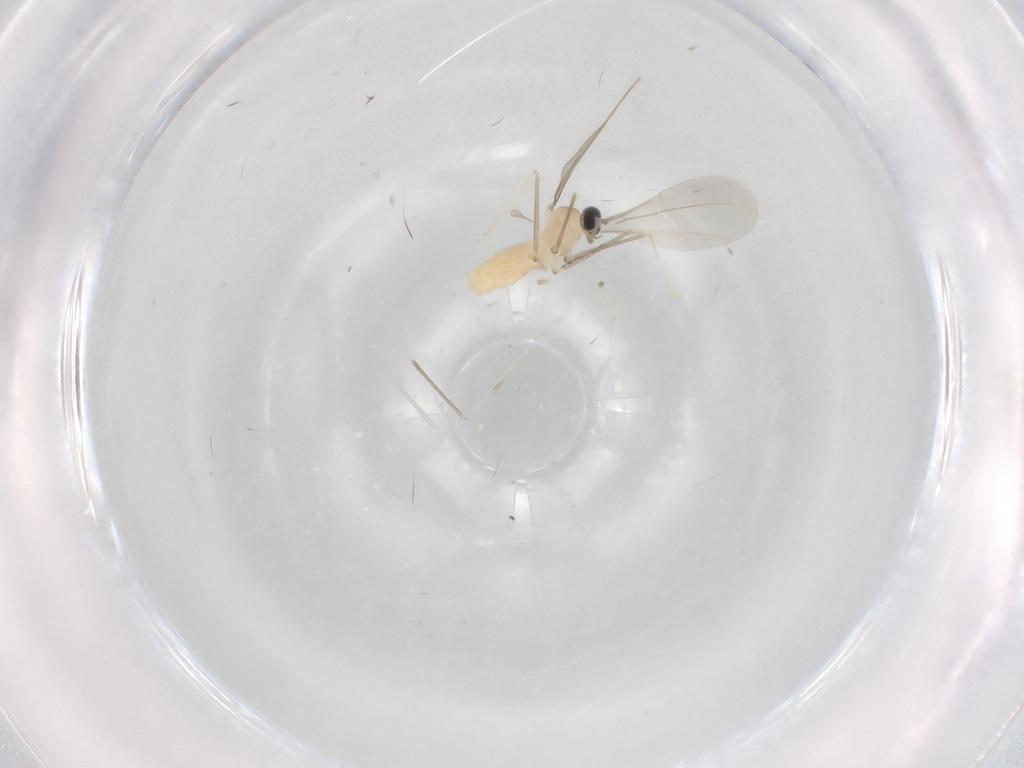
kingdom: Animalia
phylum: Arthropoda
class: Insecta
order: Diptera
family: Cecidomyiidae
